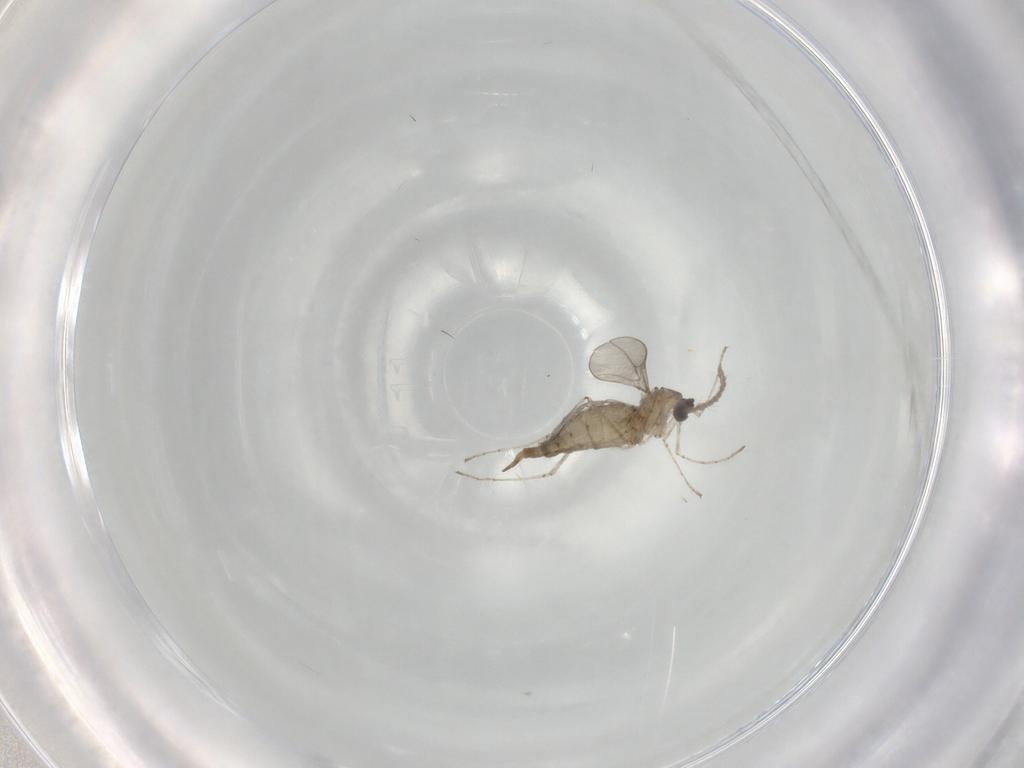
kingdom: Animalia
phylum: Arthropoda
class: Insecta
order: Diptera
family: Cecidomyiidae
